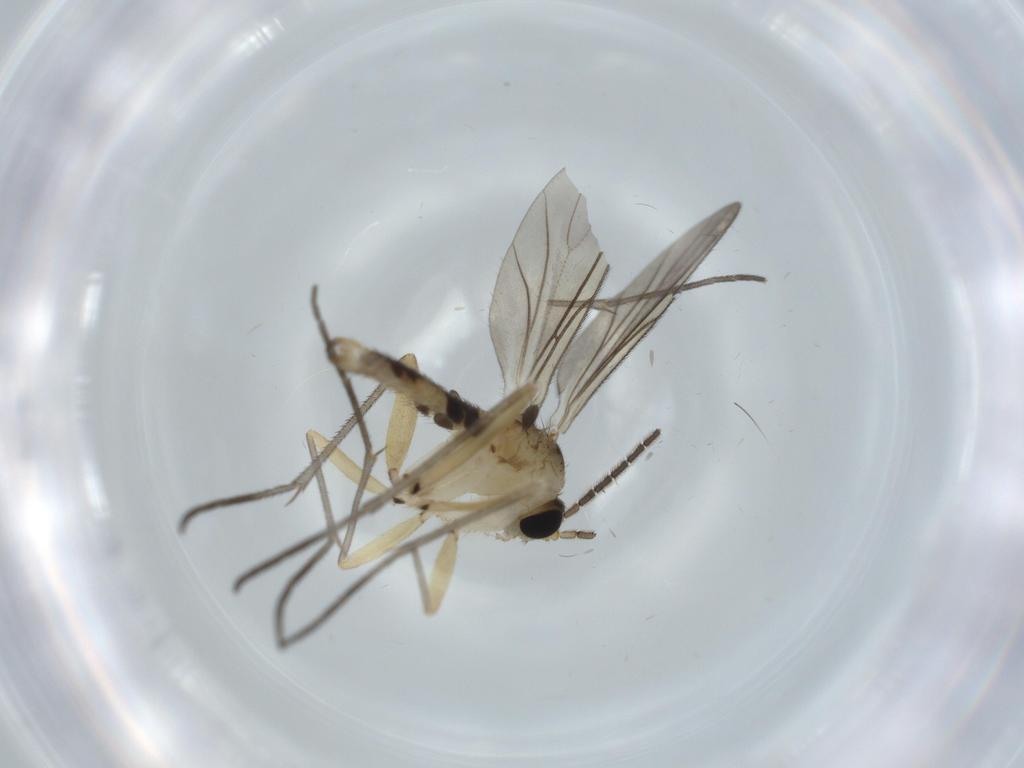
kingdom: Animalia
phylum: Arthropoda
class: Insecta
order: Diptera
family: Sciaridae
